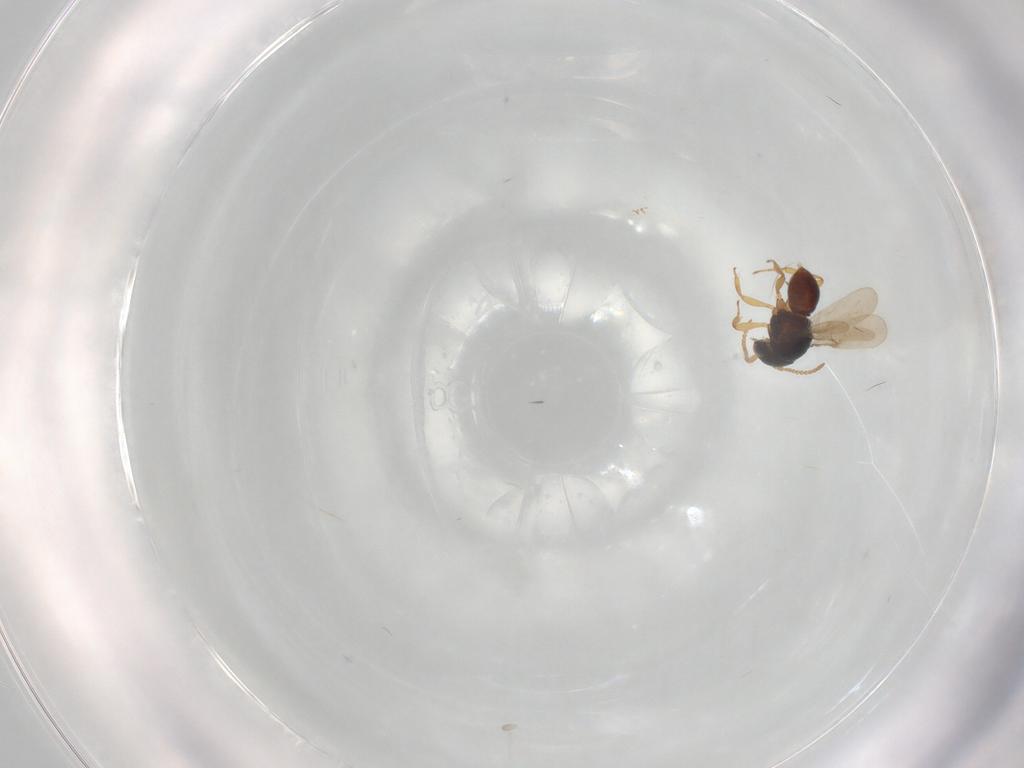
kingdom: Animalia
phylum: Arthropoda
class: Insecta
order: Hymenoptera
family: Scelionidae
